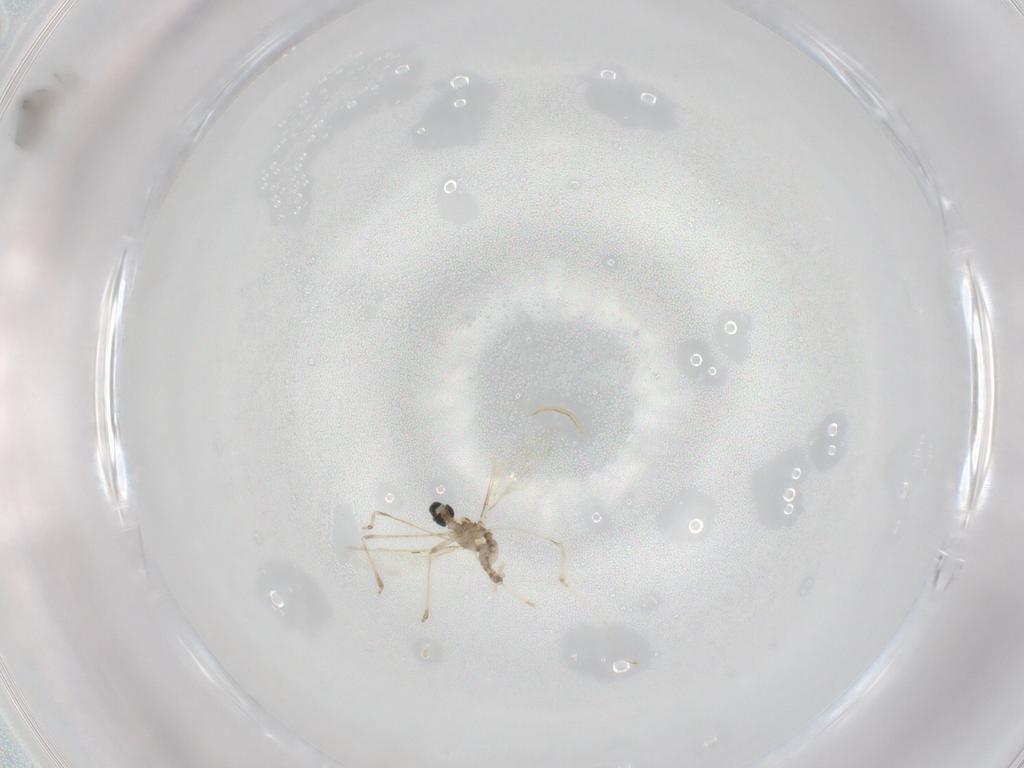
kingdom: Animalia
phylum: Arthropoda
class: Insecta
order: Diptera
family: Cecidomyiidae
